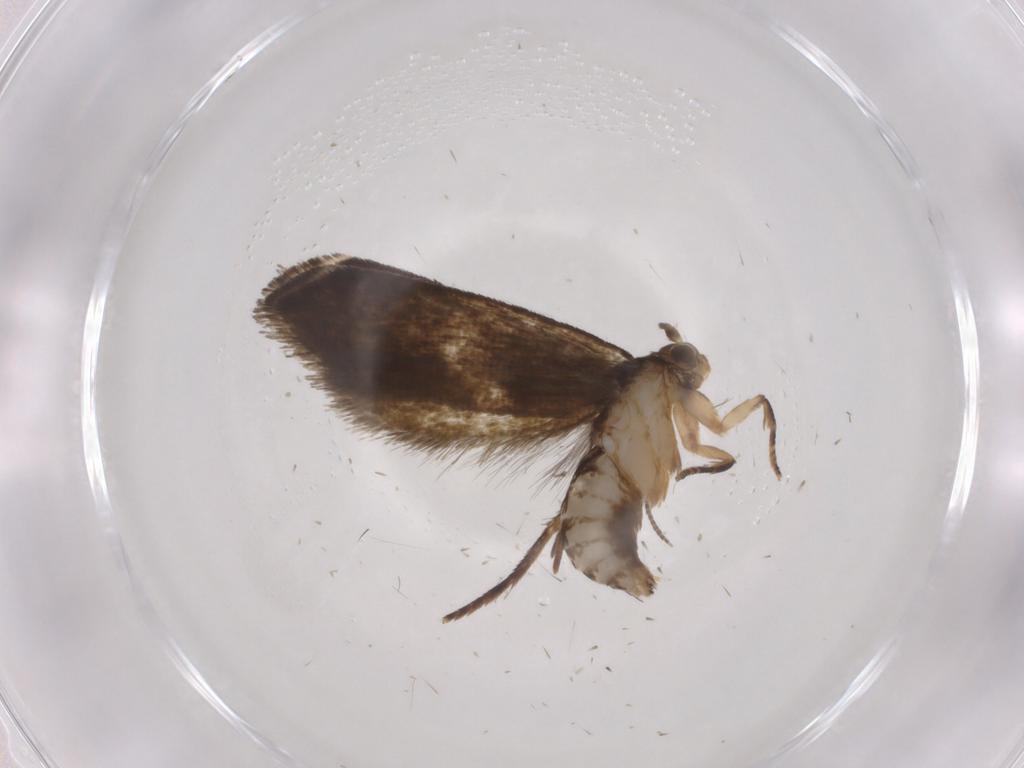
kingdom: Animalia
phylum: Arthropoda
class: Insecta
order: Lepidoptera
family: Crambidae
